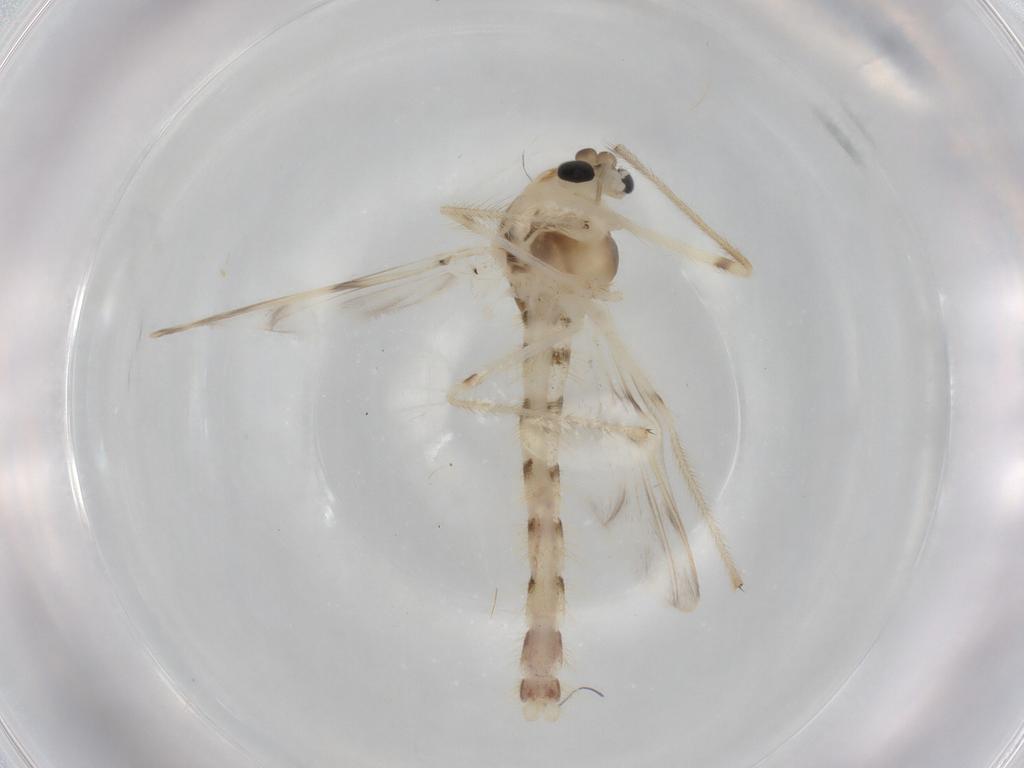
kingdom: Animalia
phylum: Arthropoda
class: Insecta
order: Diptera
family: Chironomidae
